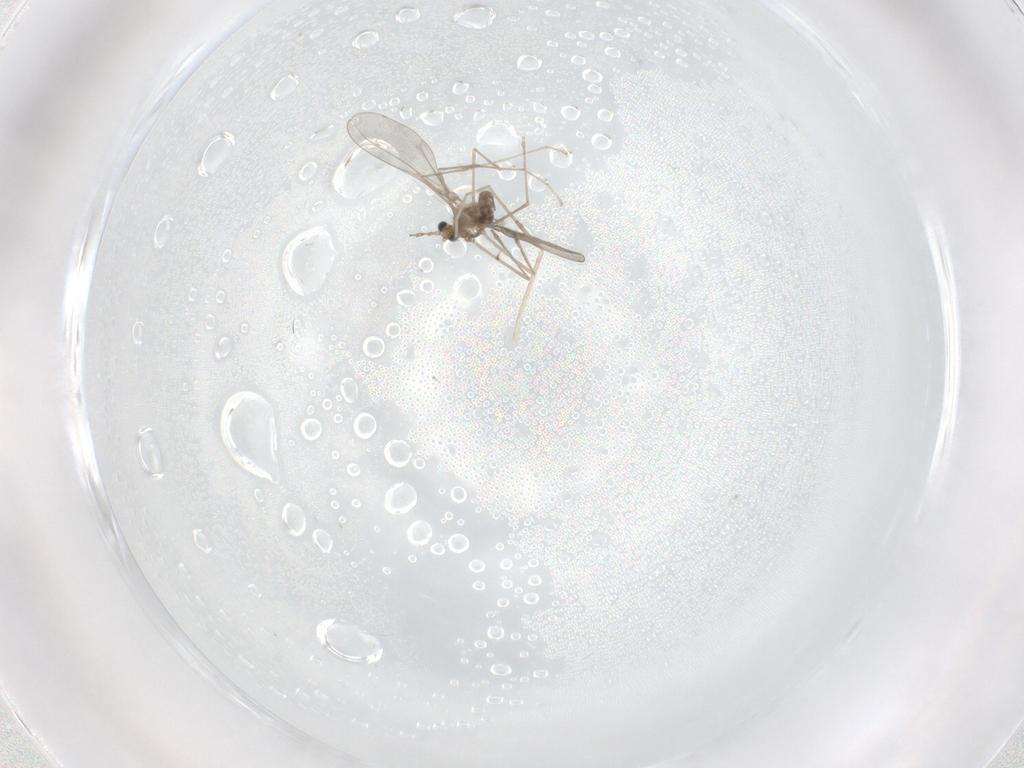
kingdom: Animalia
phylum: Arthropoda
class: Insecta
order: Diptera
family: Cecidomyiidae
